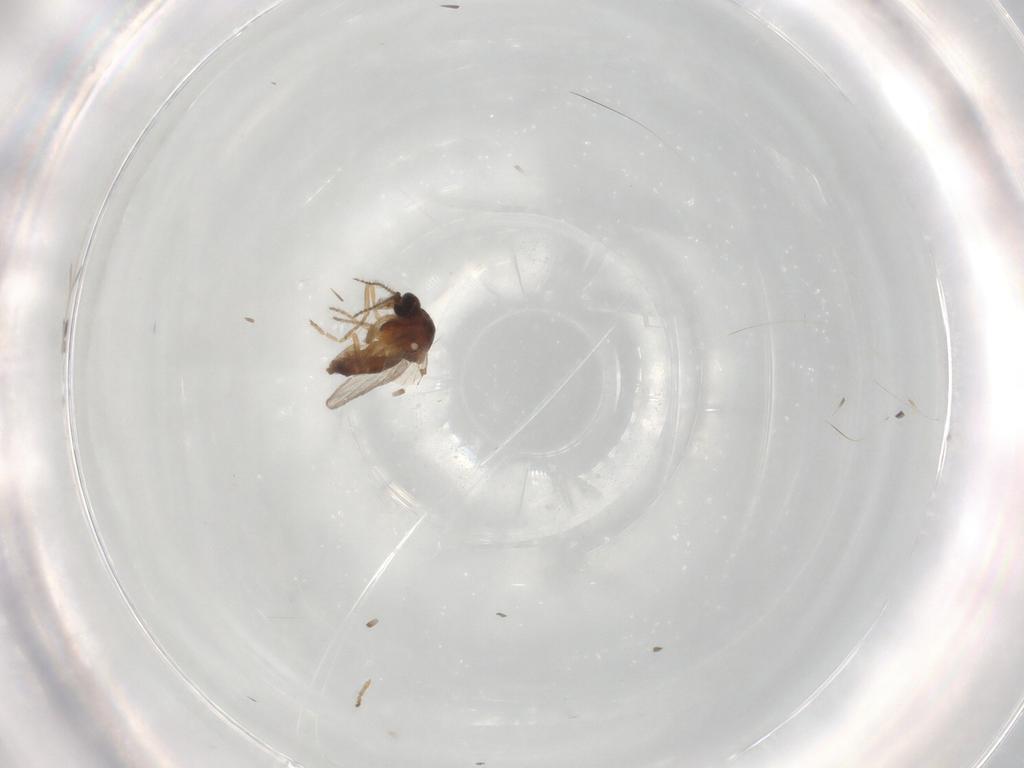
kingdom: Animalia
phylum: Arthropoda
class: Insecta
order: Diptera
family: Ceratopogonidae
